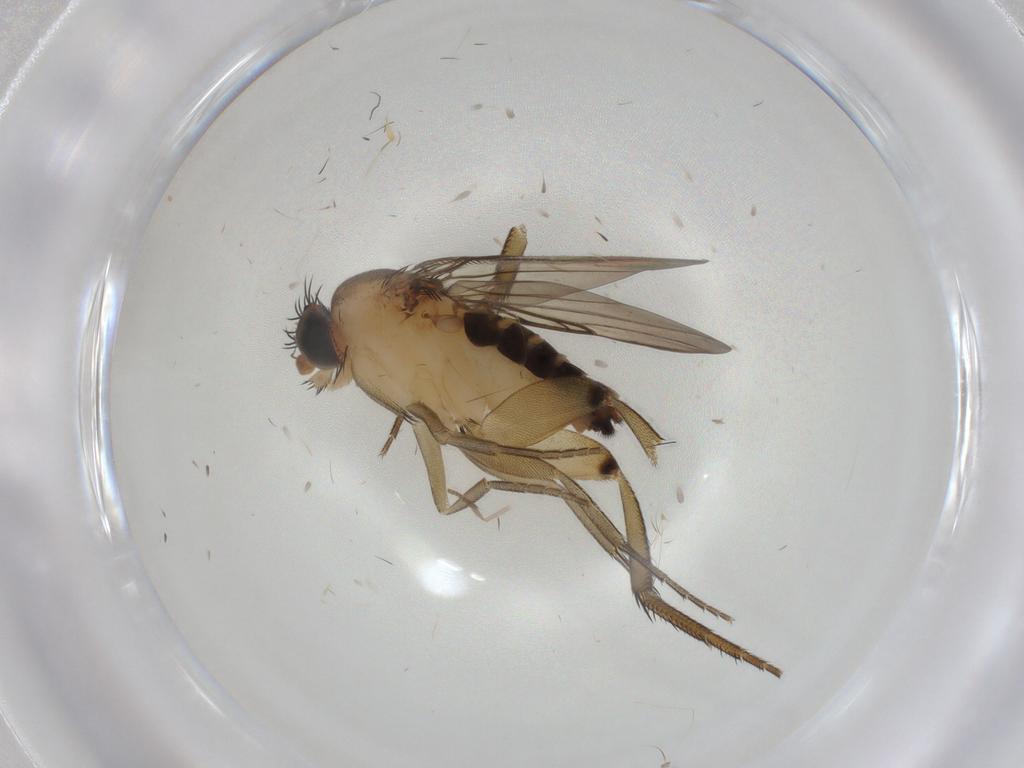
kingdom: Animalia
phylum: Arthropoda
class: Insecta
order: Diptera
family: Phoridae
